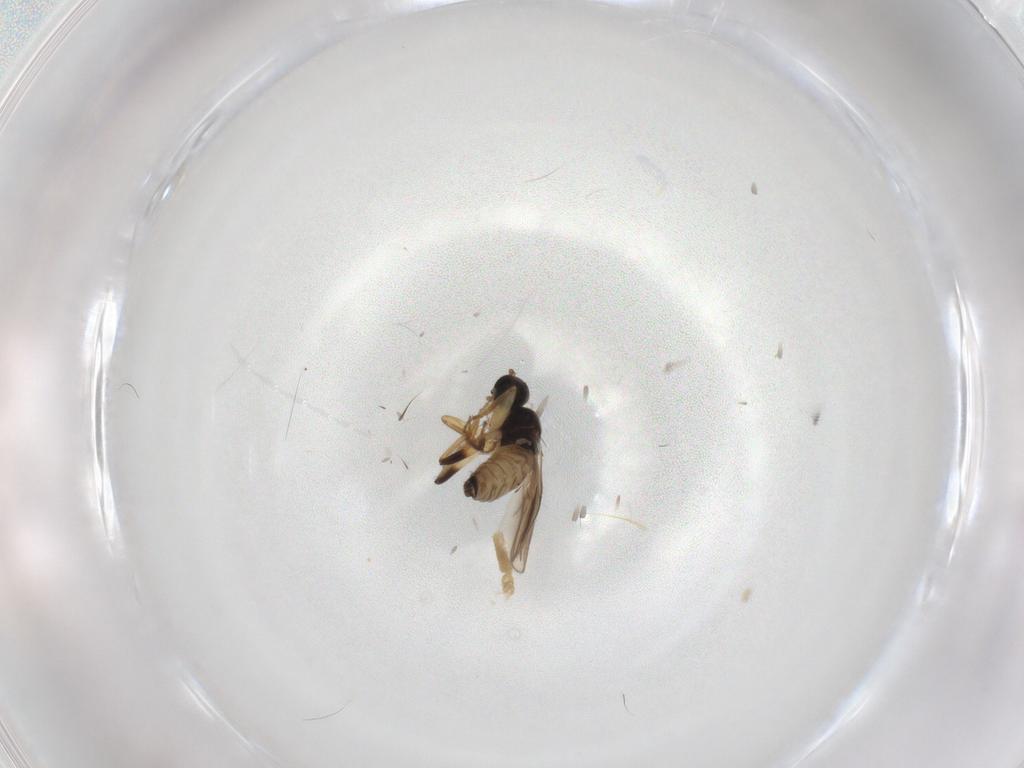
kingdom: Animalia
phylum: Arthropoda
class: Insecta
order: Diptera
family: Hybotidae
